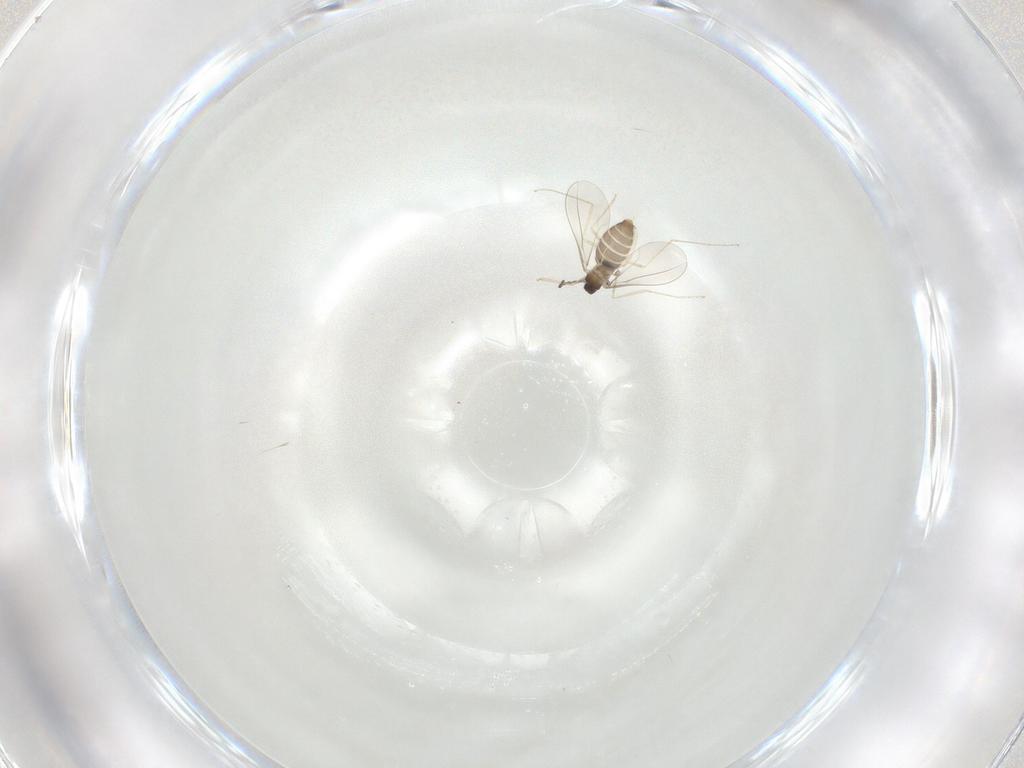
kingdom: Animalia
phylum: Arthropoda
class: Insecta
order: Diptera
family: Cecidomyiidae
